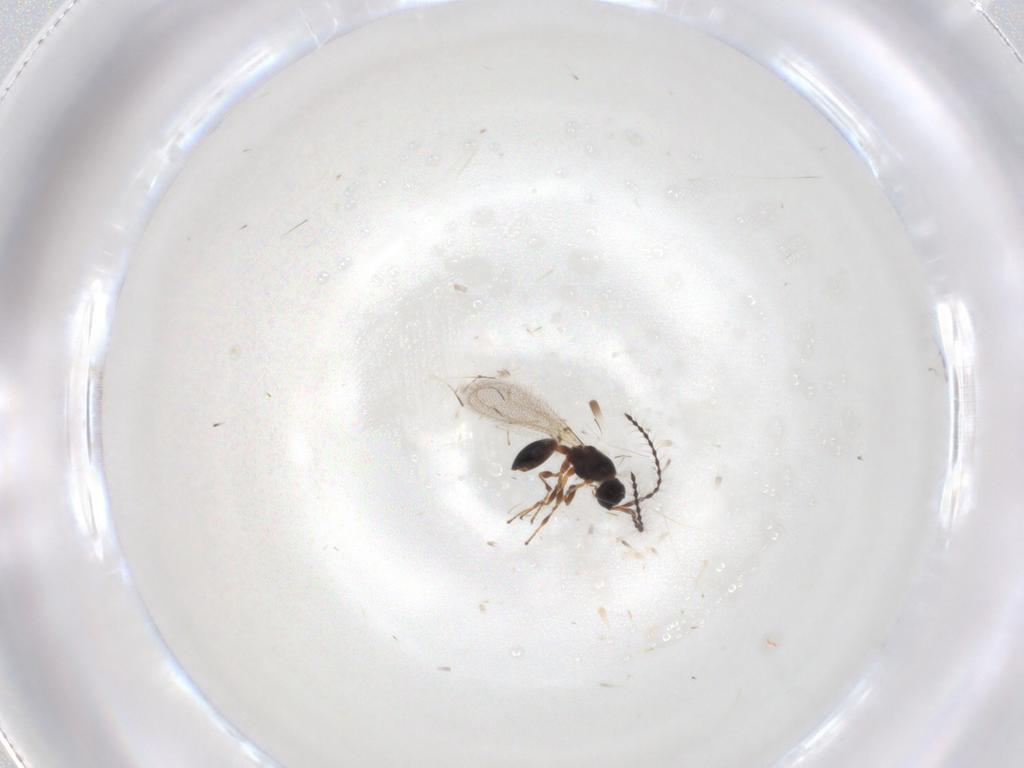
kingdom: Animalia
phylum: Arthropoda
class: Insecta
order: Hymenoptera
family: Diapriidae
